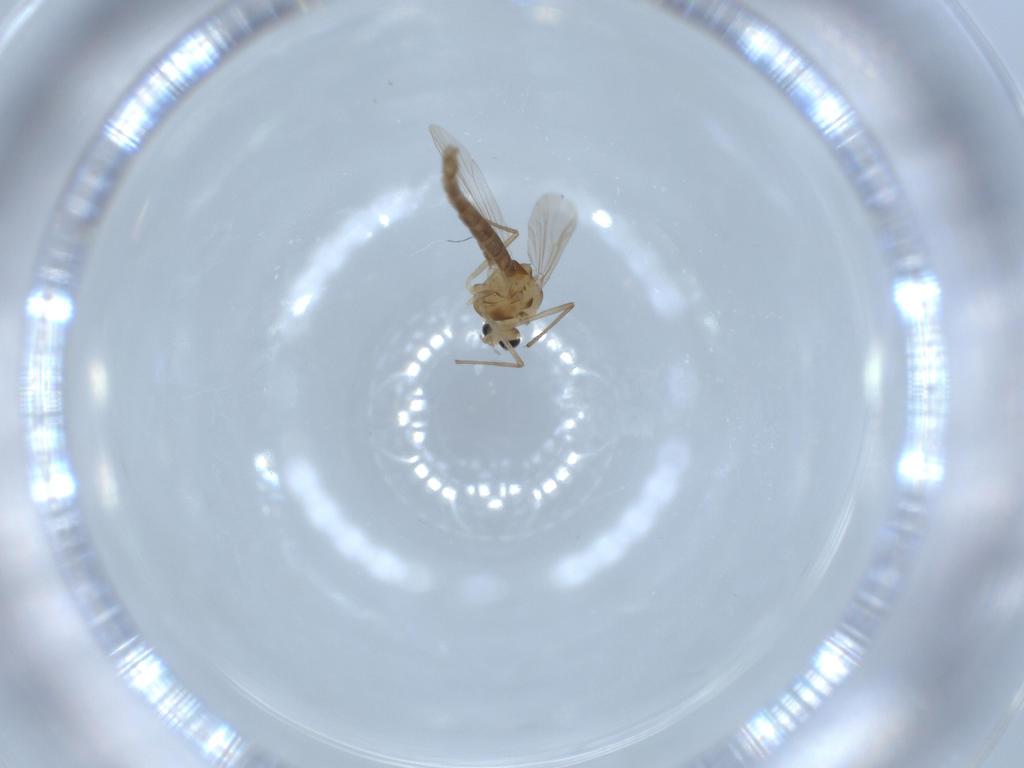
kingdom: Animalia
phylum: Arthropoda
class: Insecta
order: Diptera
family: Chironomidae
